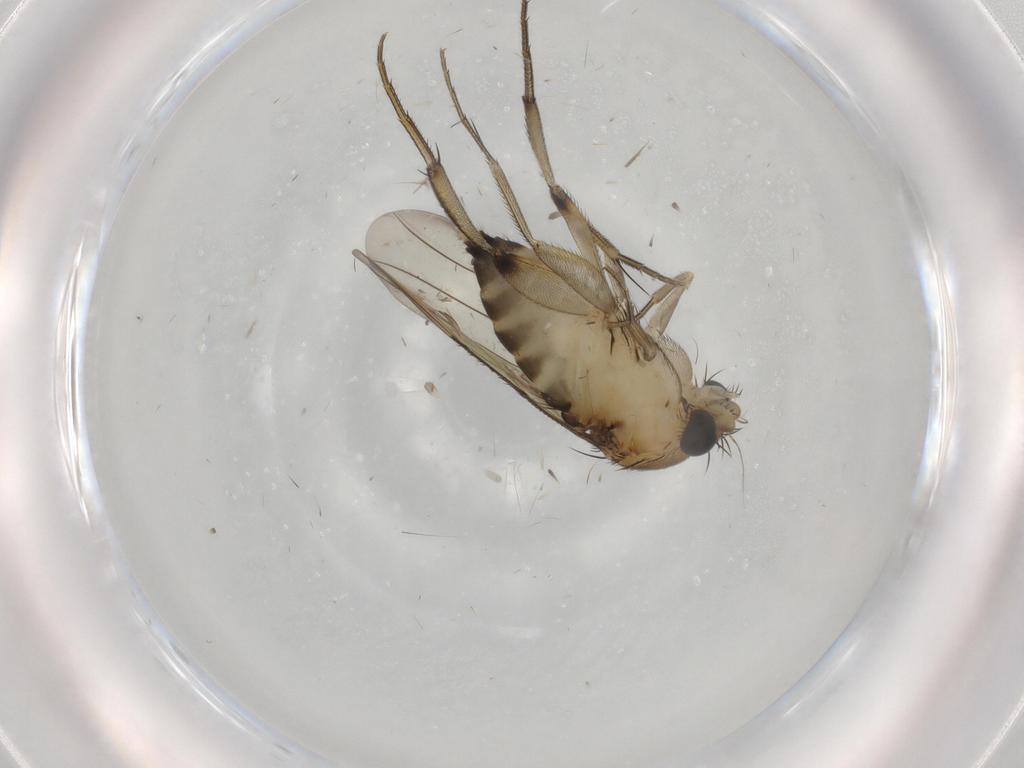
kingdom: Animalia
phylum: Arthropoda
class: Insecta
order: Diptera
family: Phoridae
